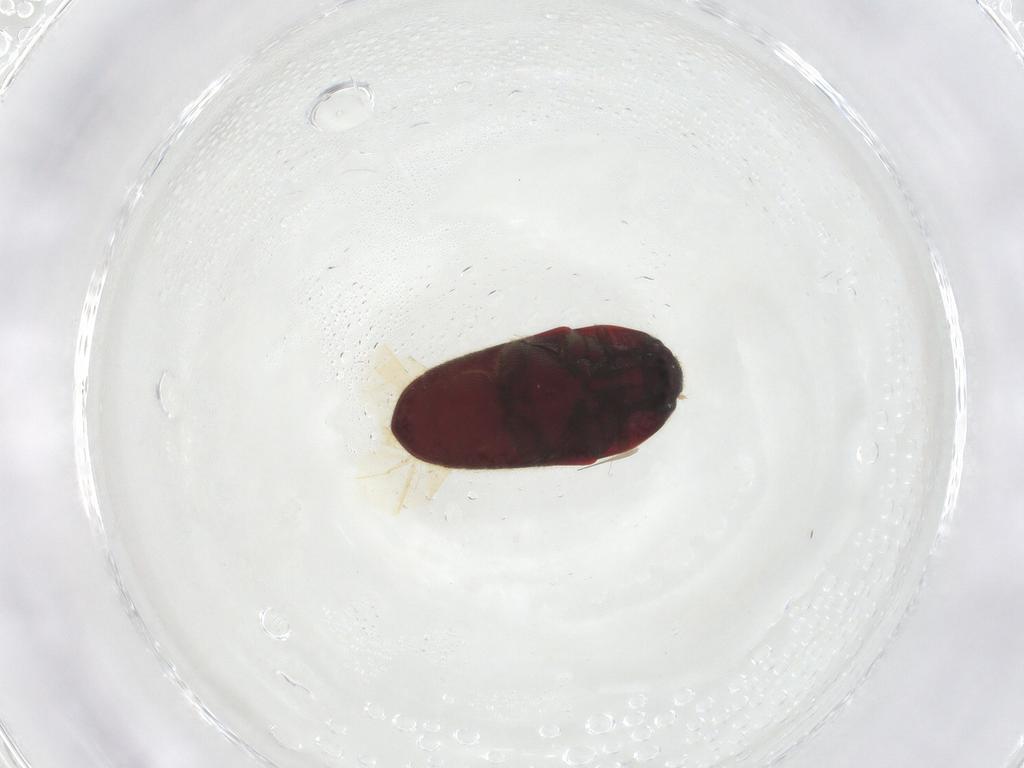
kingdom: Animalia
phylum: Arthropoda
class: Insecta
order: Coleoptera
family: Throscidae
